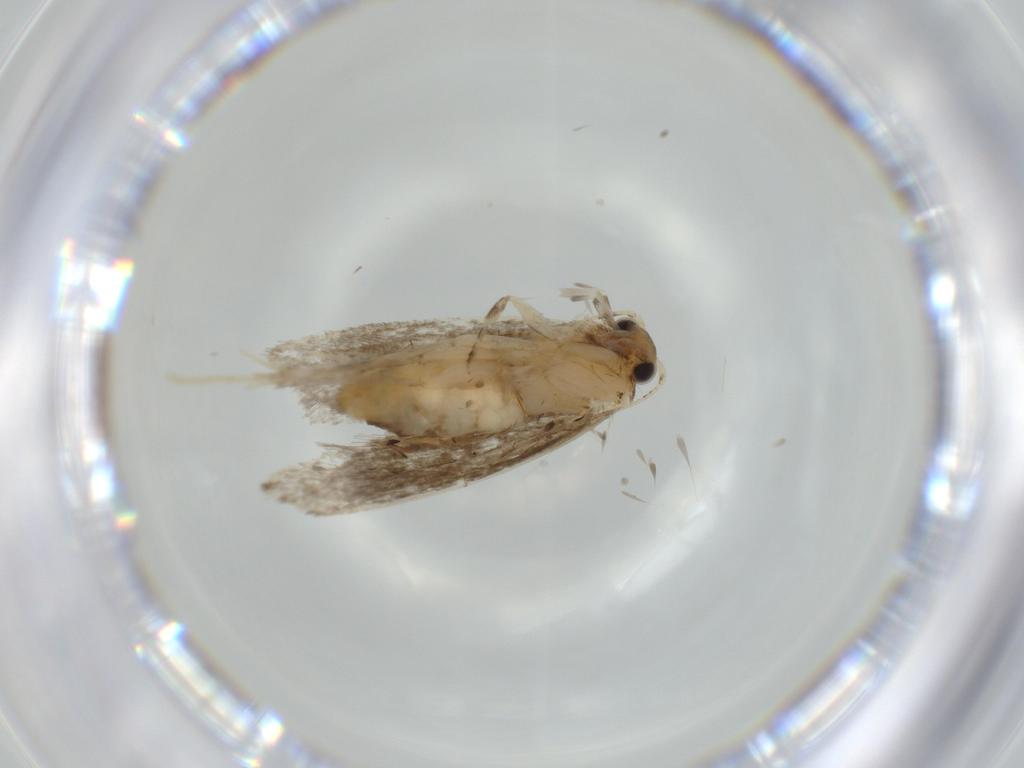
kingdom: Animalia
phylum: Arthropoda
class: Insecta
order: Lepidoptera
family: Tineidae
